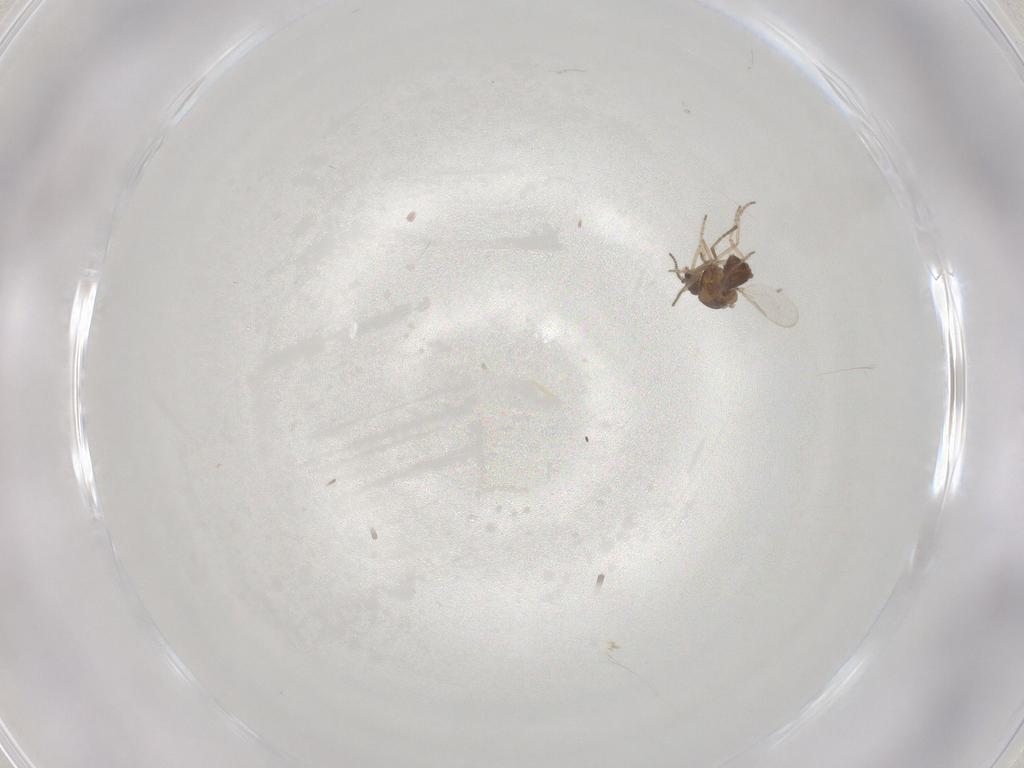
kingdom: Animalia
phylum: Arthropoda
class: Insecta
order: Diptera
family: Ceratopogonidae
